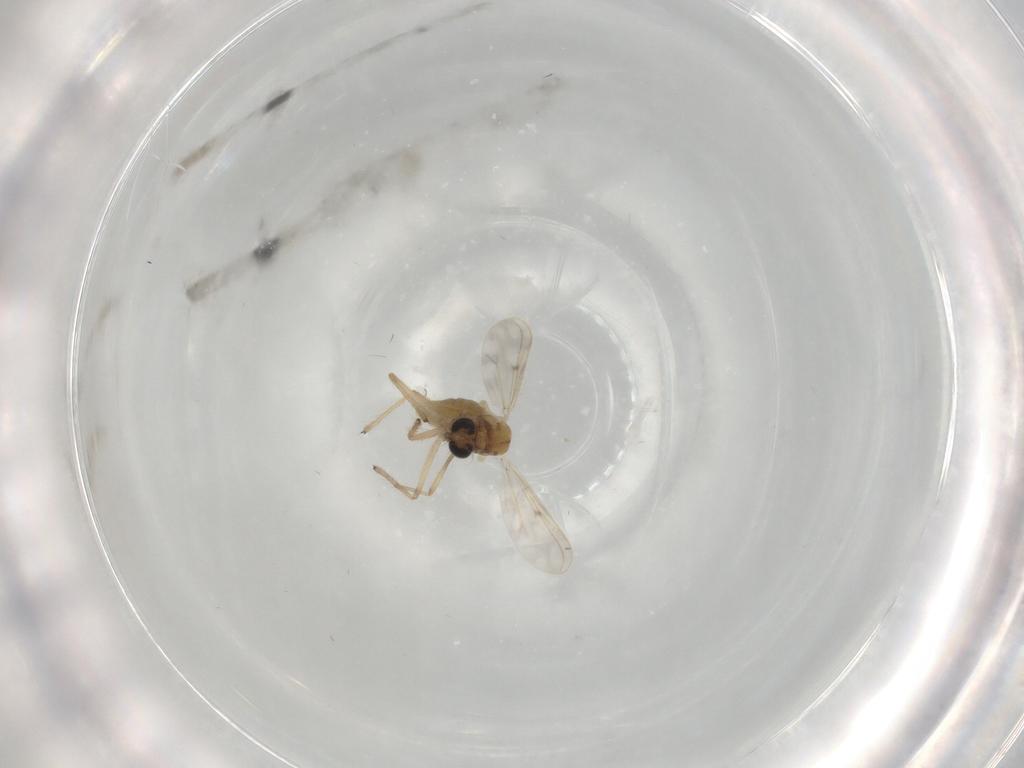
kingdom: Animalia
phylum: Arthropoda
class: Insecta
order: Diptera
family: Chironomidae
